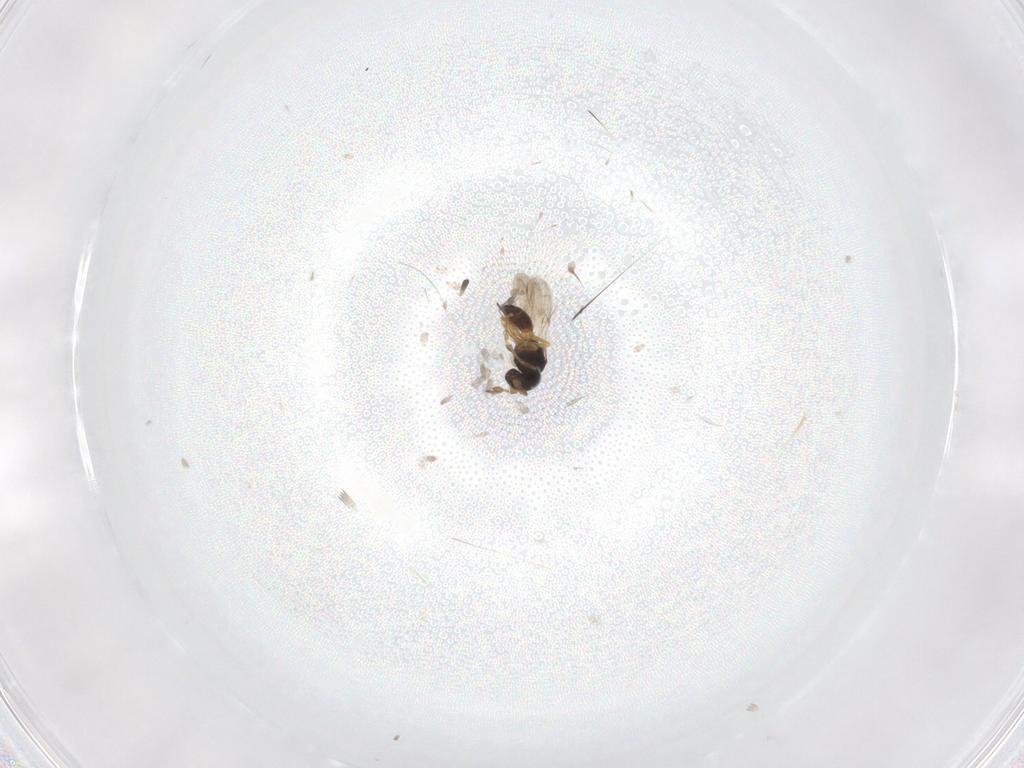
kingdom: Animalia
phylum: Arthropoda
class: Insecta
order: Hymenoptera
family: Scelionidae
